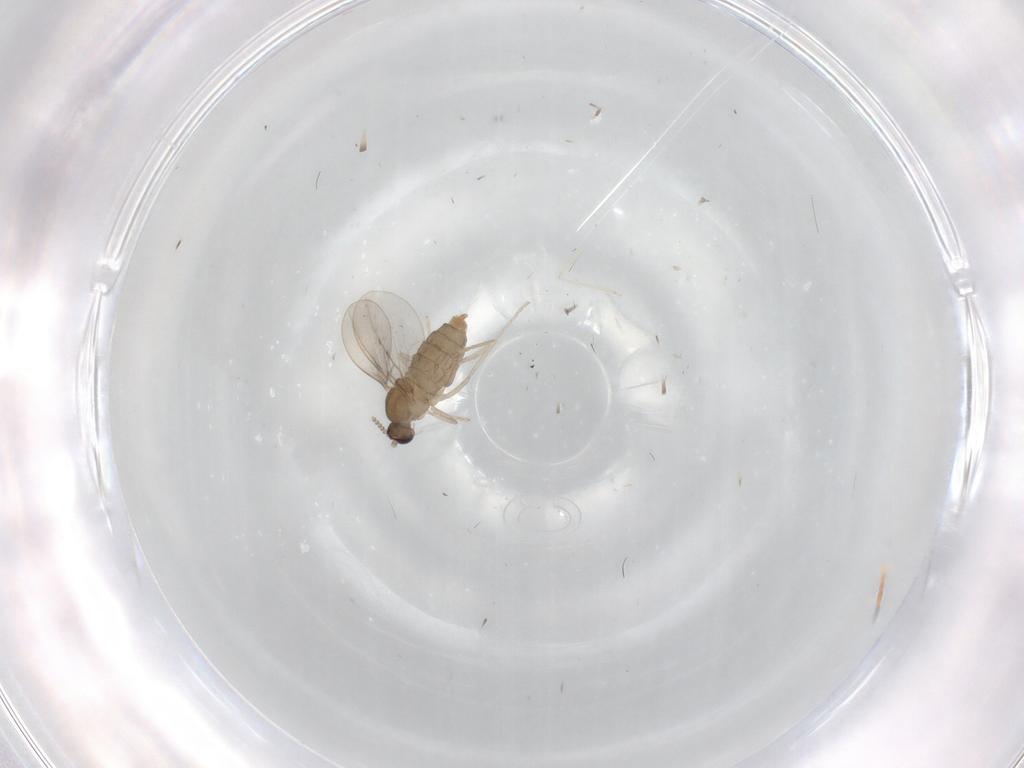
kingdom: Animalia
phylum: Arthropoda
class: Insecta
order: Diptera
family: Cecidomyiidae
